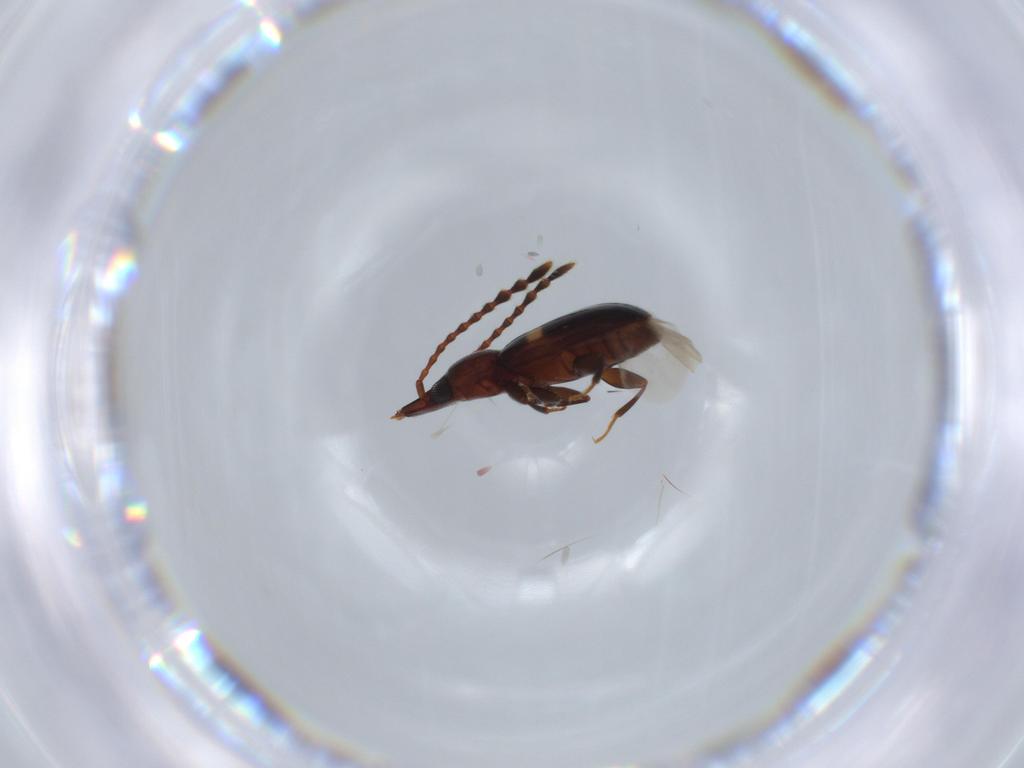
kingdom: Animalia
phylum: Arthropoda
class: Insecta
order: Coleoptera
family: Laemophloeidae
